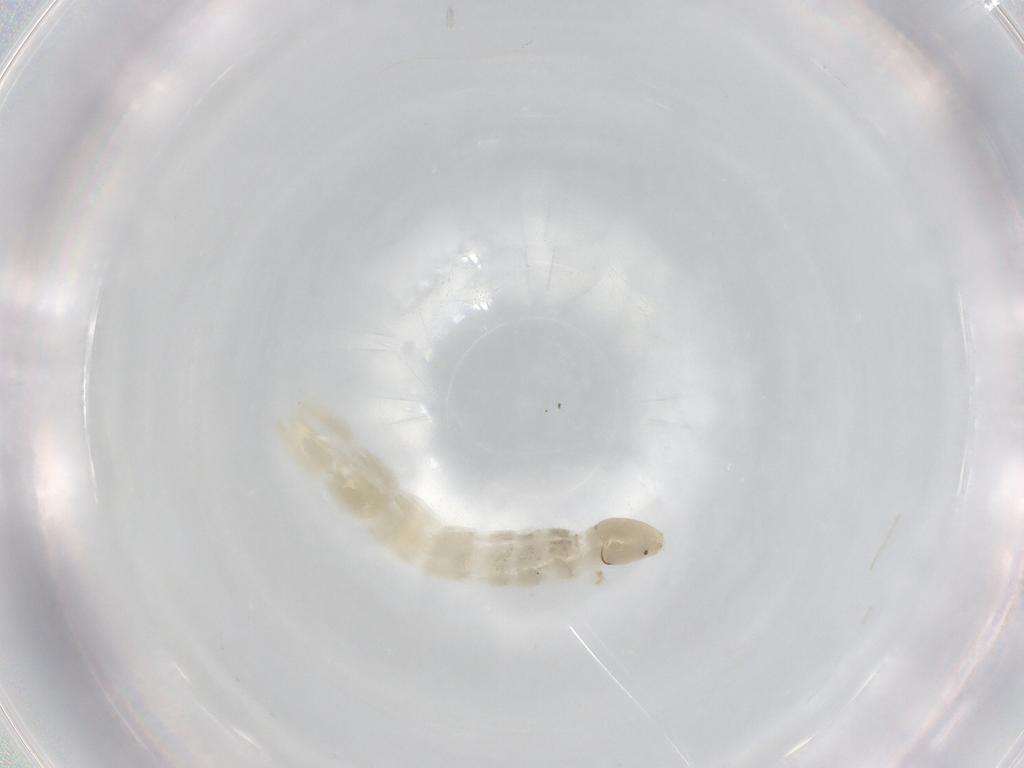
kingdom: Animalia
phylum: Arthropoda
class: Insecta
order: Diptera
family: Chironomidae
